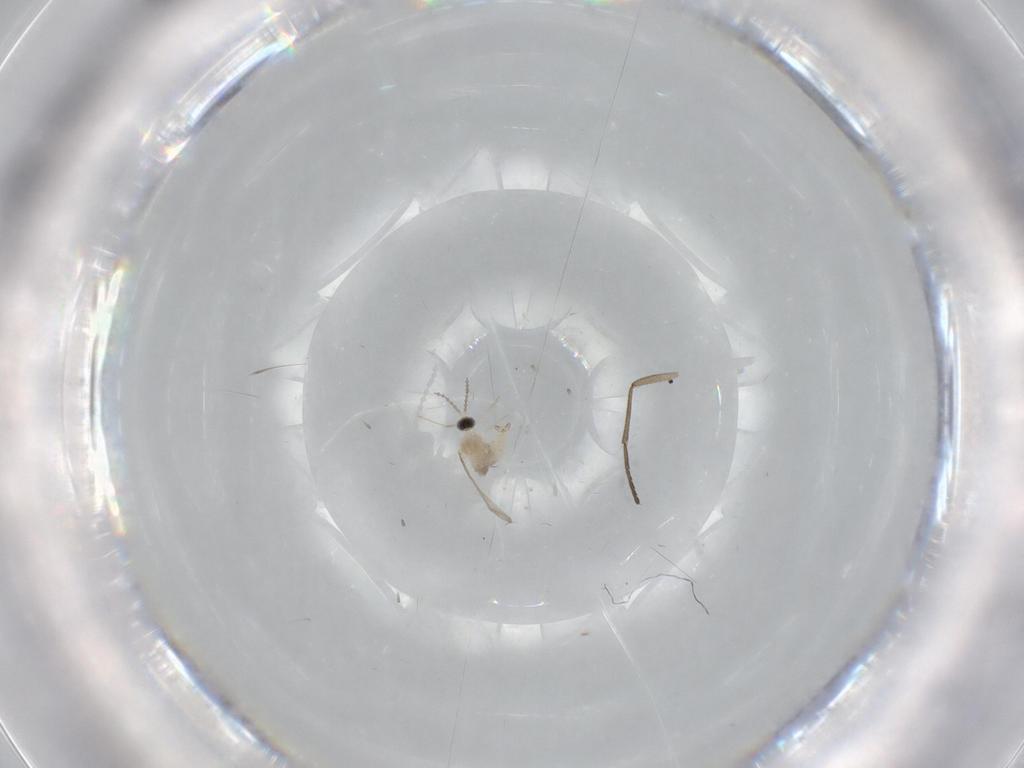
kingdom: Animalia
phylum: Arthropoda
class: Insecta
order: Diptera
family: Cecidomyiidae
